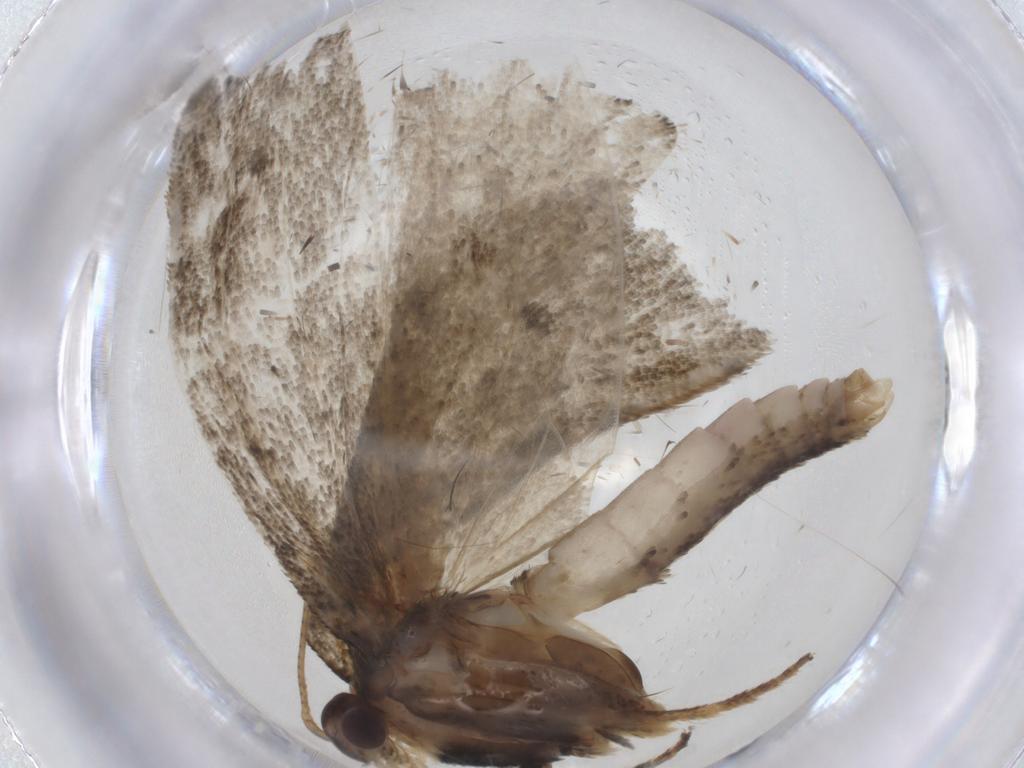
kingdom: Animalia
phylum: Arthropoda
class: Insecta
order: Lepidoptera
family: Depressariidae
